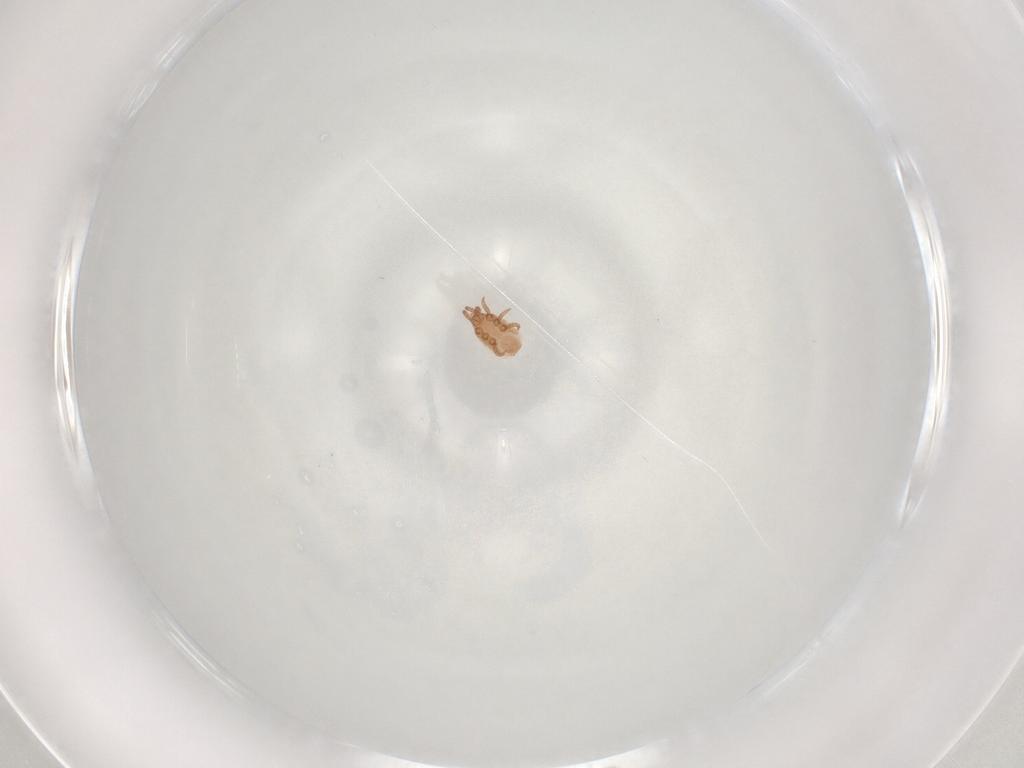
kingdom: Animalia
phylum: Arthropoda
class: Arachnida
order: Mesostigmata
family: Dinychidae
